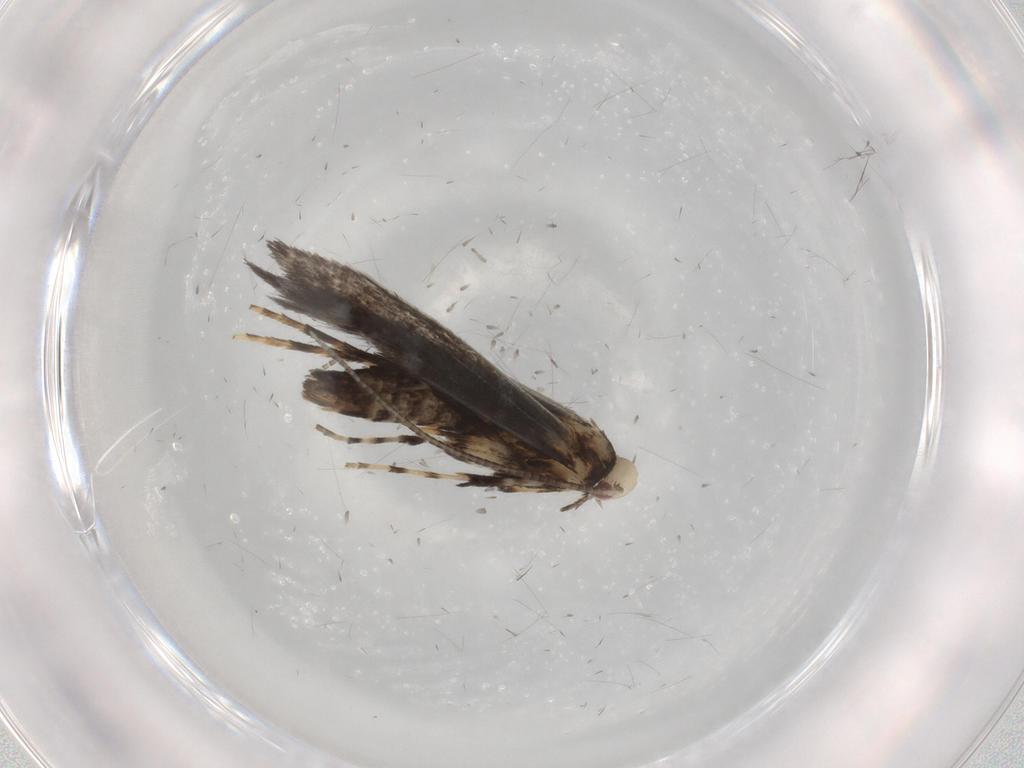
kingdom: Animalia
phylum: Arthropoda
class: Insecta
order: Lepidoptera
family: Gracillariidae
